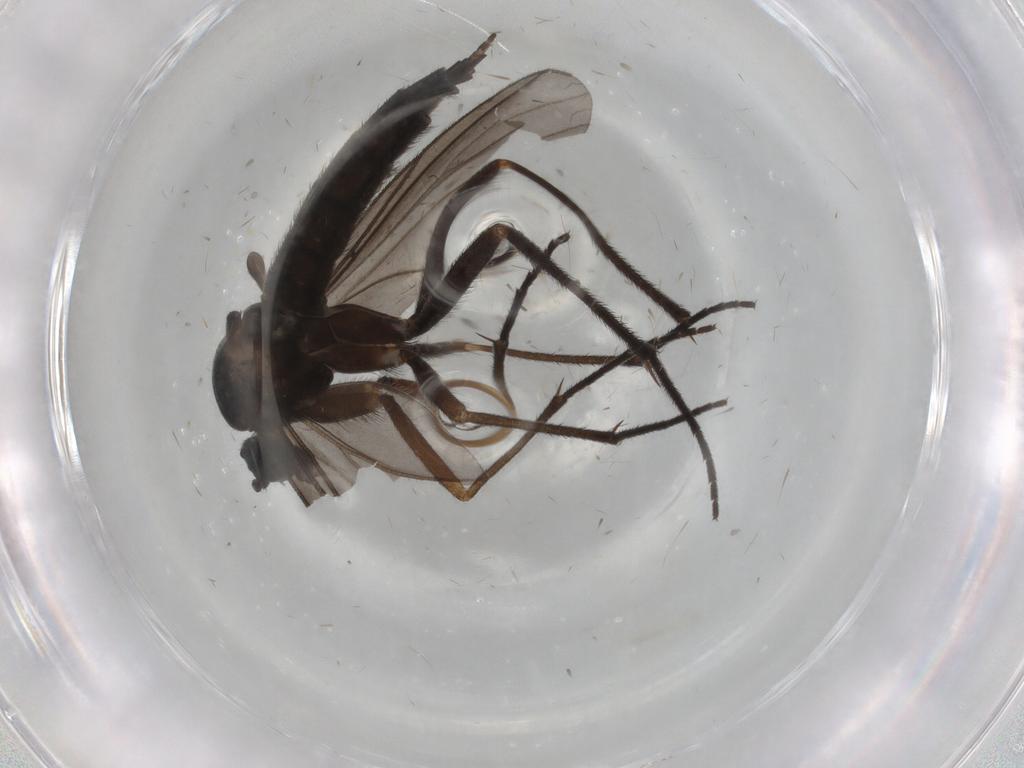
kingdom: Animalia
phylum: Arthropoda
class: Insecta
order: Diptera
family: Sciaridae
